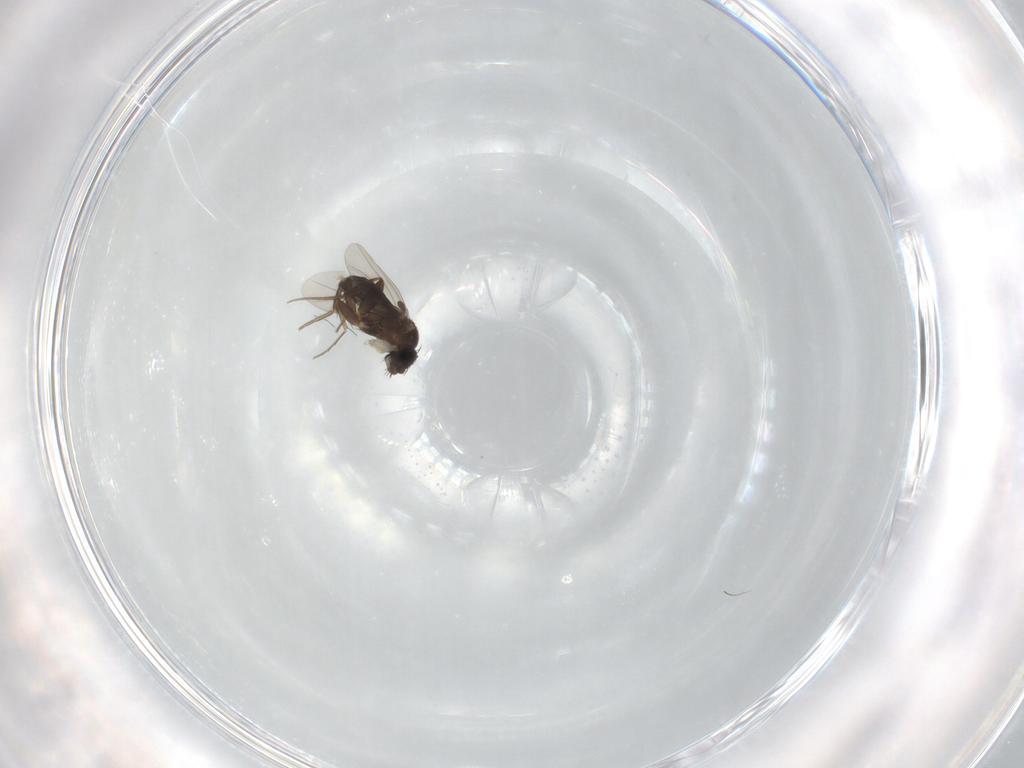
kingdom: Animalia
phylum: Arthropoda
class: Insecta
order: Diptera
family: Phoridae
